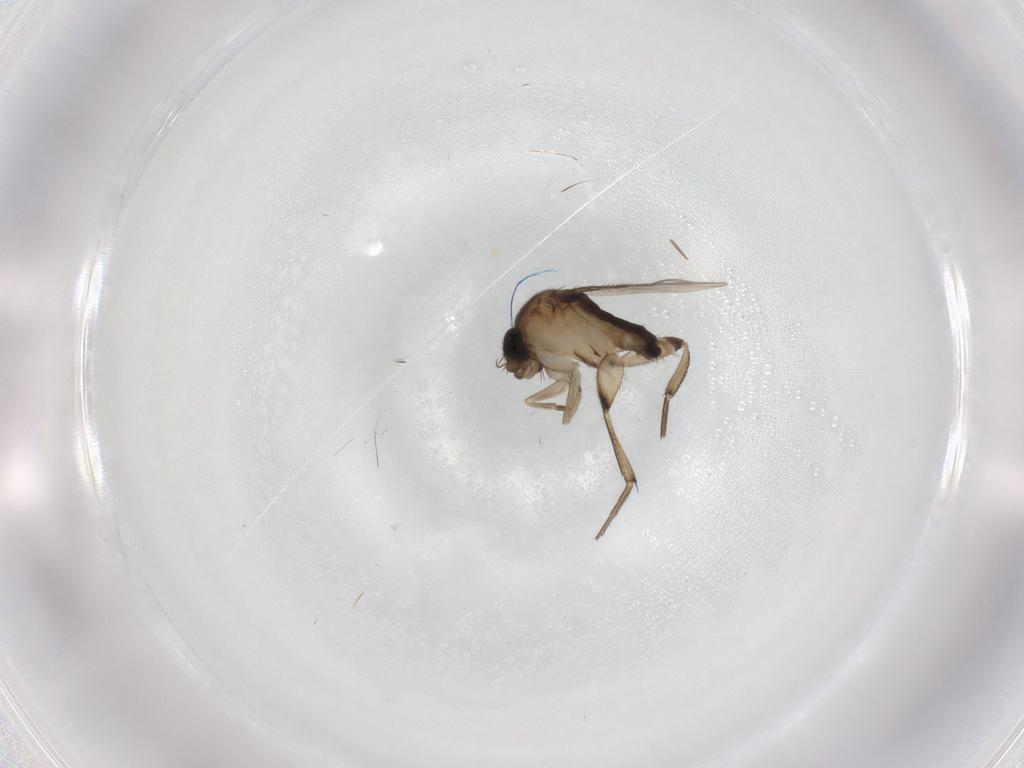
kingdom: Animalia
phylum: Arthropoda
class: Insecta
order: Diptera
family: Phoridae
